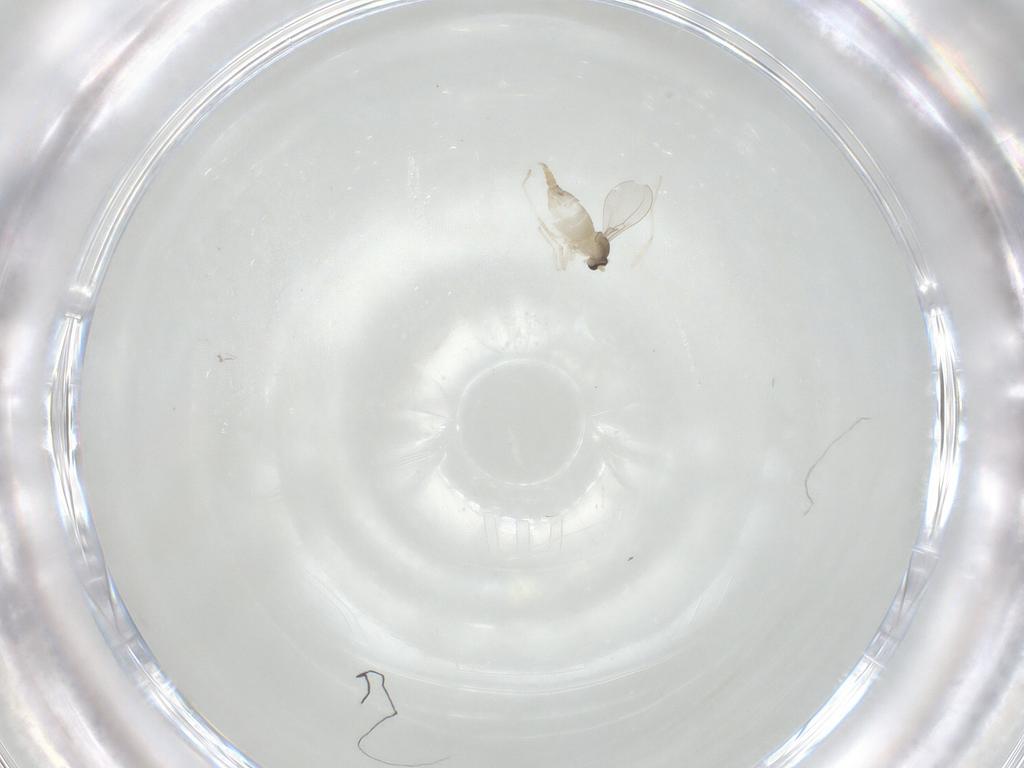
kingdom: Animalia
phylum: Arthropoda
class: Insecta
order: Diptera
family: Cecidomyiidae
